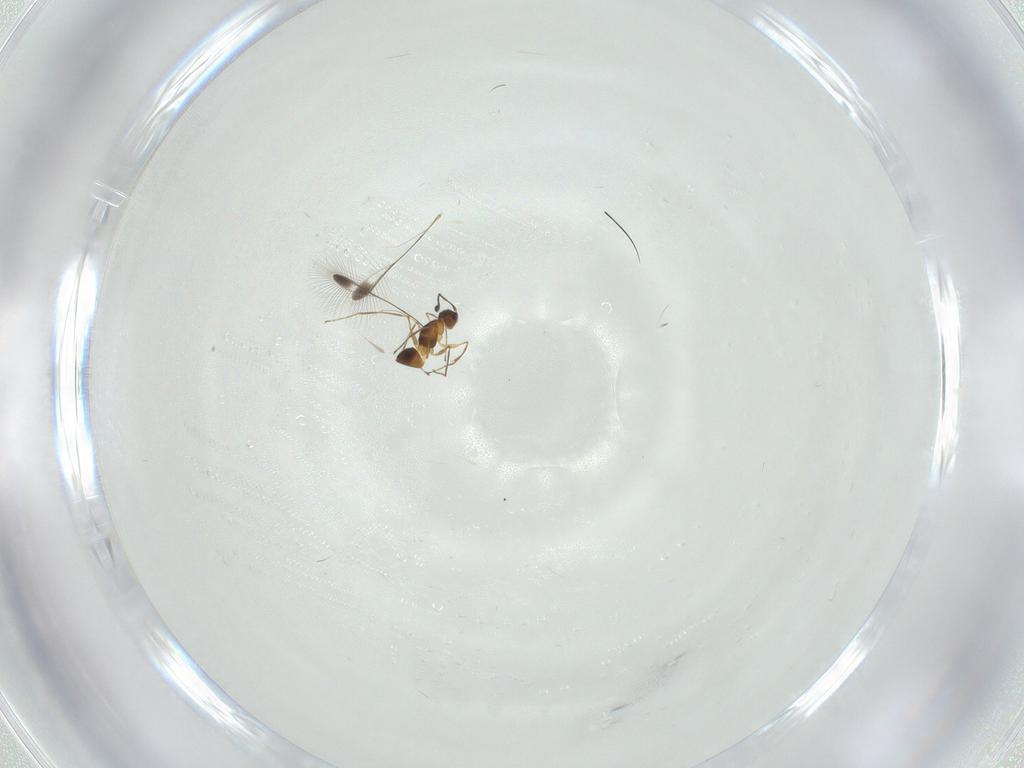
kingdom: Animalia
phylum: Arthropoda
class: Insecta
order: Hymenoptera
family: Mymaridae
